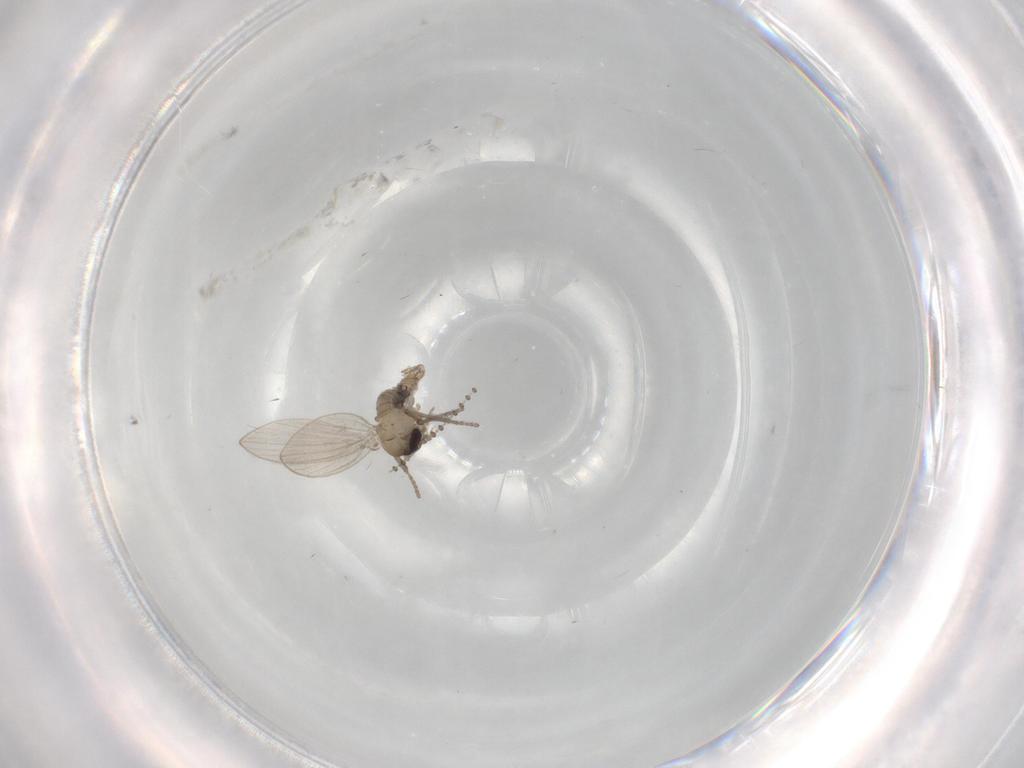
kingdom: Animalia
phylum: Arthropoda
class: Insecta
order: Diptera
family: Psychodidae
